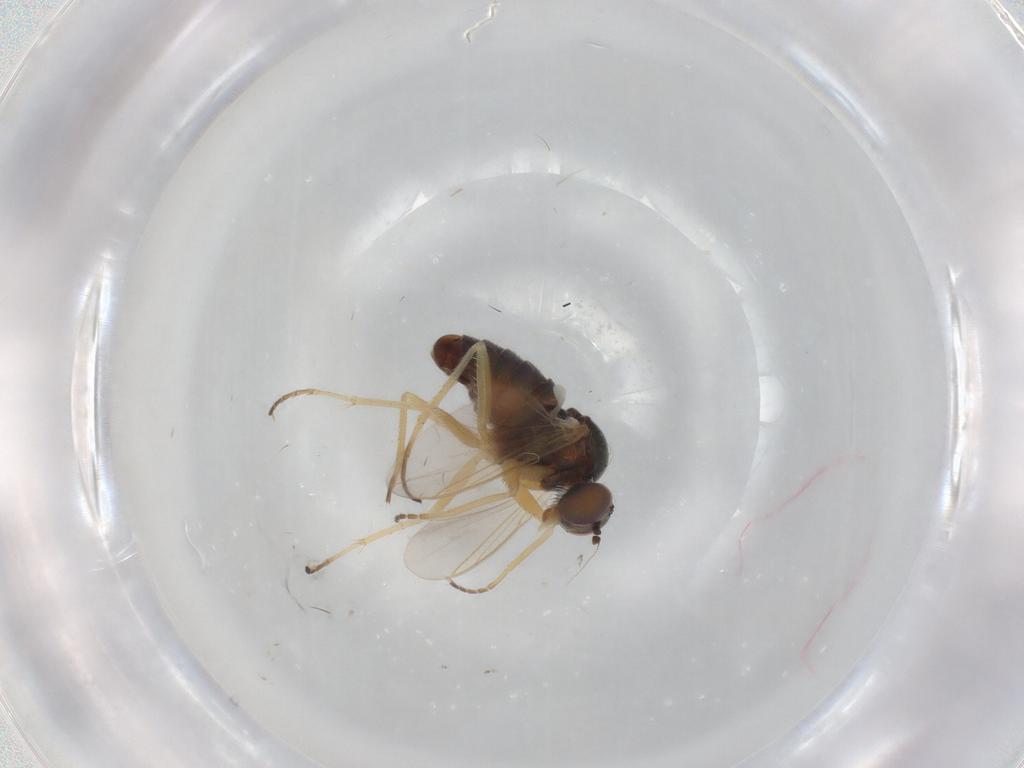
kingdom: Animalia
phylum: Arthropoda
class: Insecta
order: Diptera
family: Dolichopodidae
